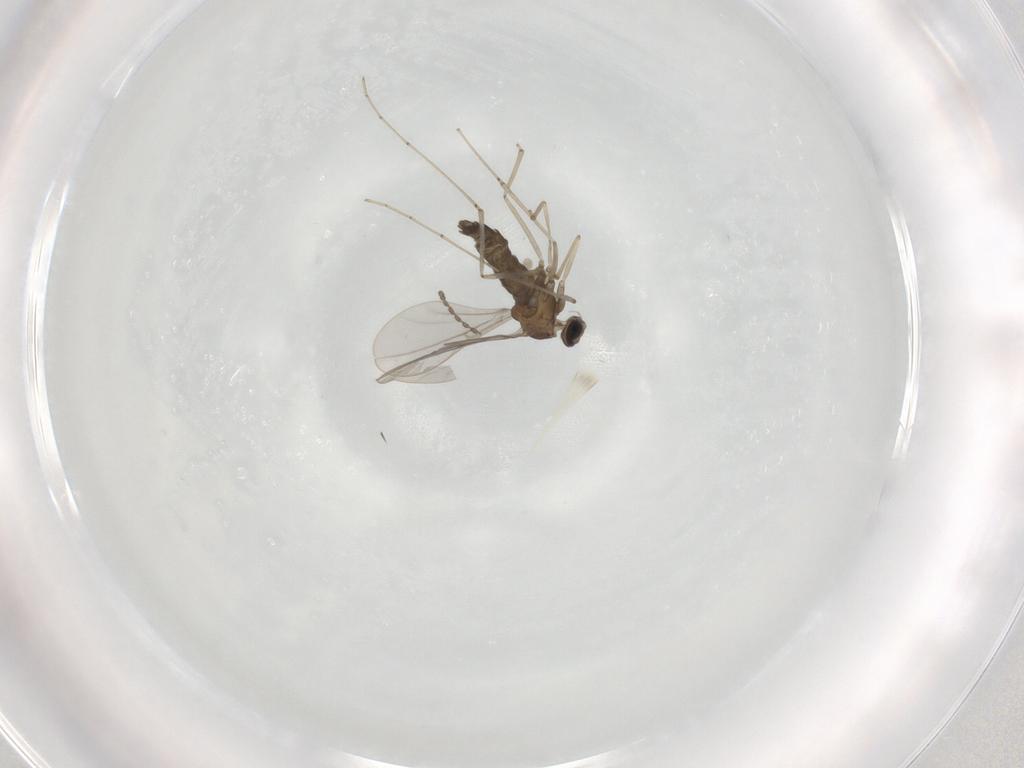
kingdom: Animalia
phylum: Arthropoda
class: Insecta
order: Diptera
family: Cecidomyiidae
